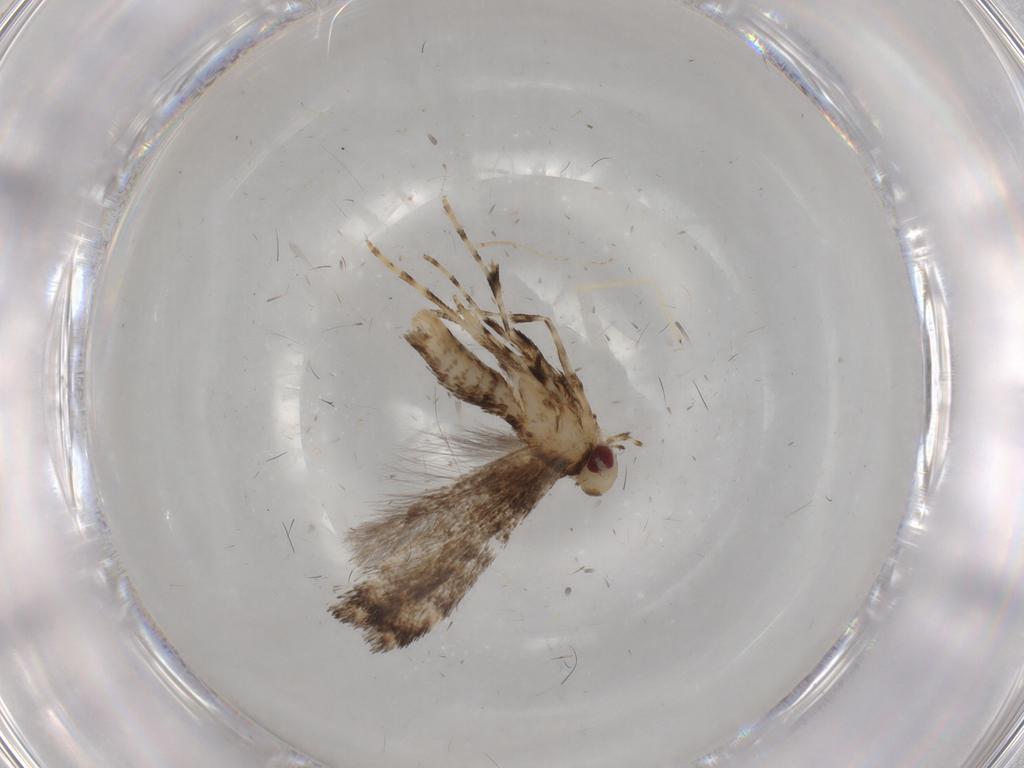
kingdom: Animalia
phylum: Arthropoda
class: Insecta
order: Lepidoptera
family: Gracillariidae
